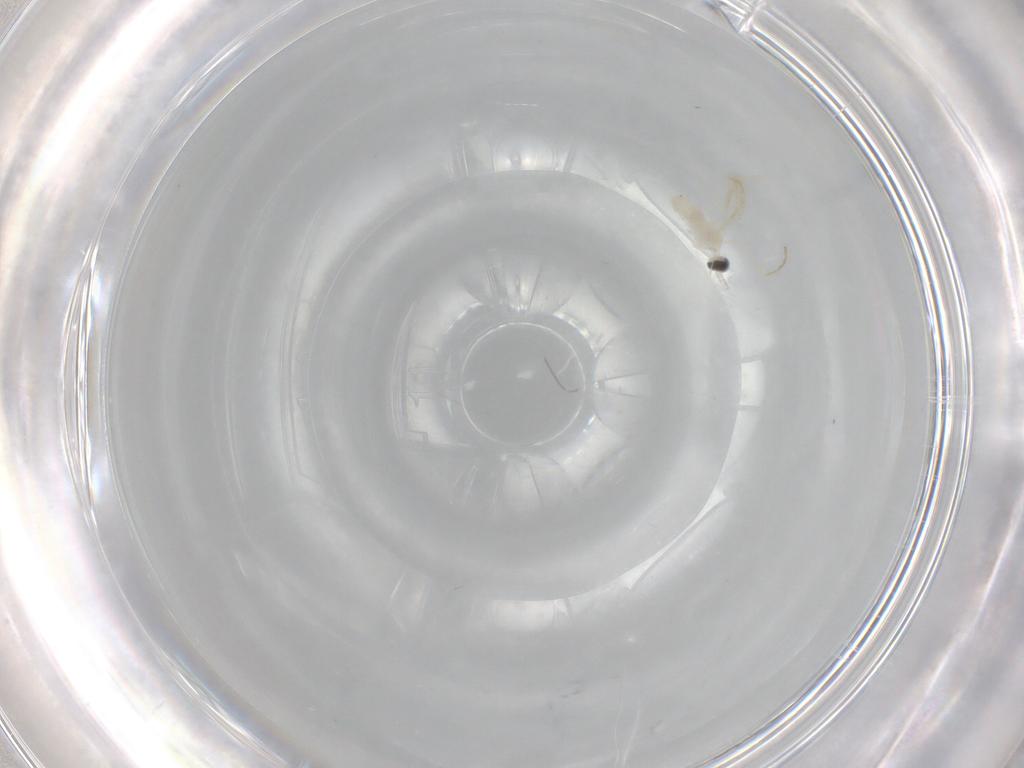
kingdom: Animalia
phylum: Arthropoda
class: Insecta
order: Diptera
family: Cecidomyiidae
